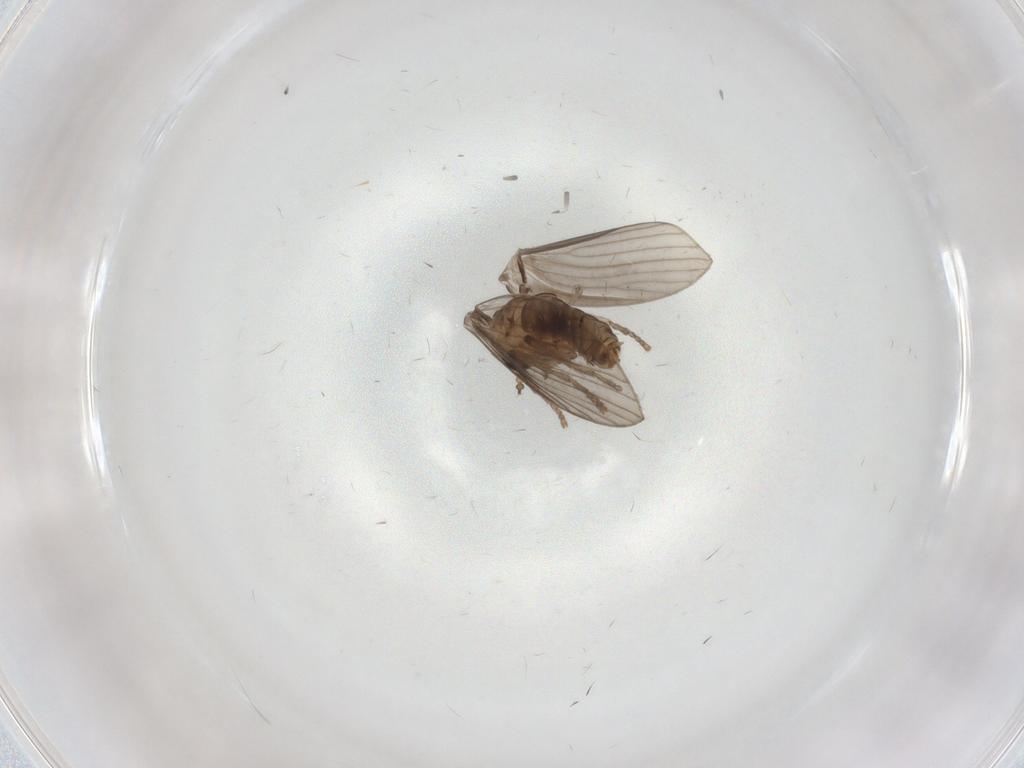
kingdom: Animalia
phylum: Arthropoda
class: Insecta
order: Diptera
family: Psychodidae
